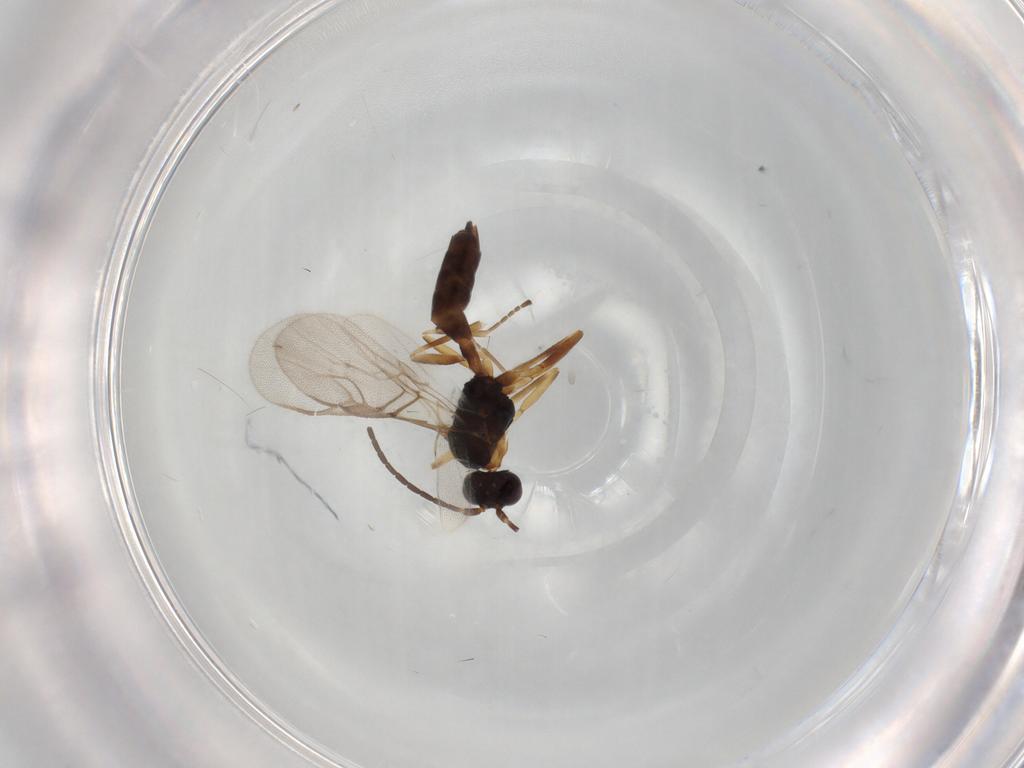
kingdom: Animalia
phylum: Arthropoda
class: Insecta
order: Hymenoptera
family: Braconidae
